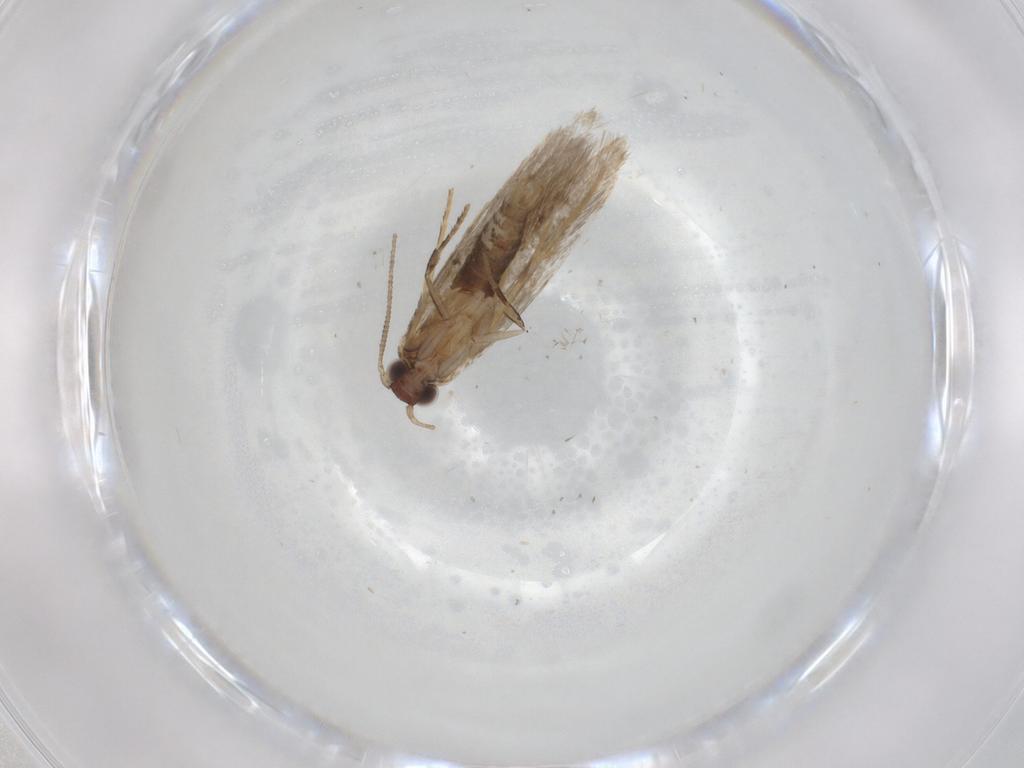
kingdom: Animalia
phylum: Arthropoda
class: Insecta
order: Lepidoptera
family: Tineidae
